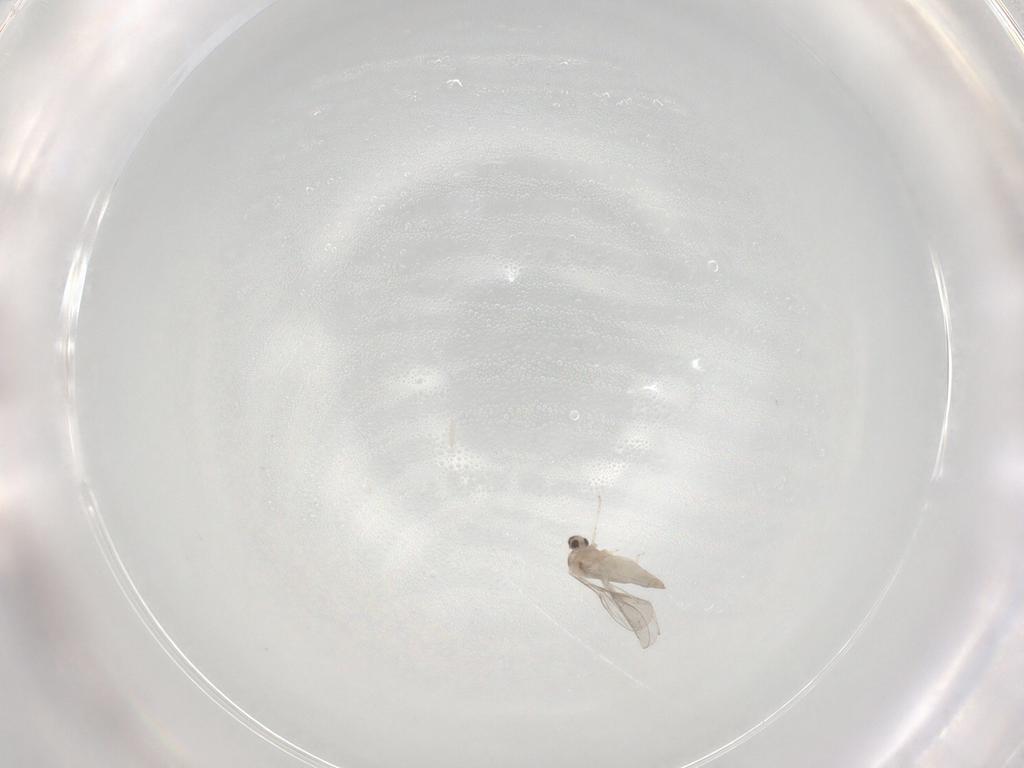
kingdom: Animalia
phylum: Arthropoda
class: Insecta
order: Diptera
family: Cecidomyiidae
